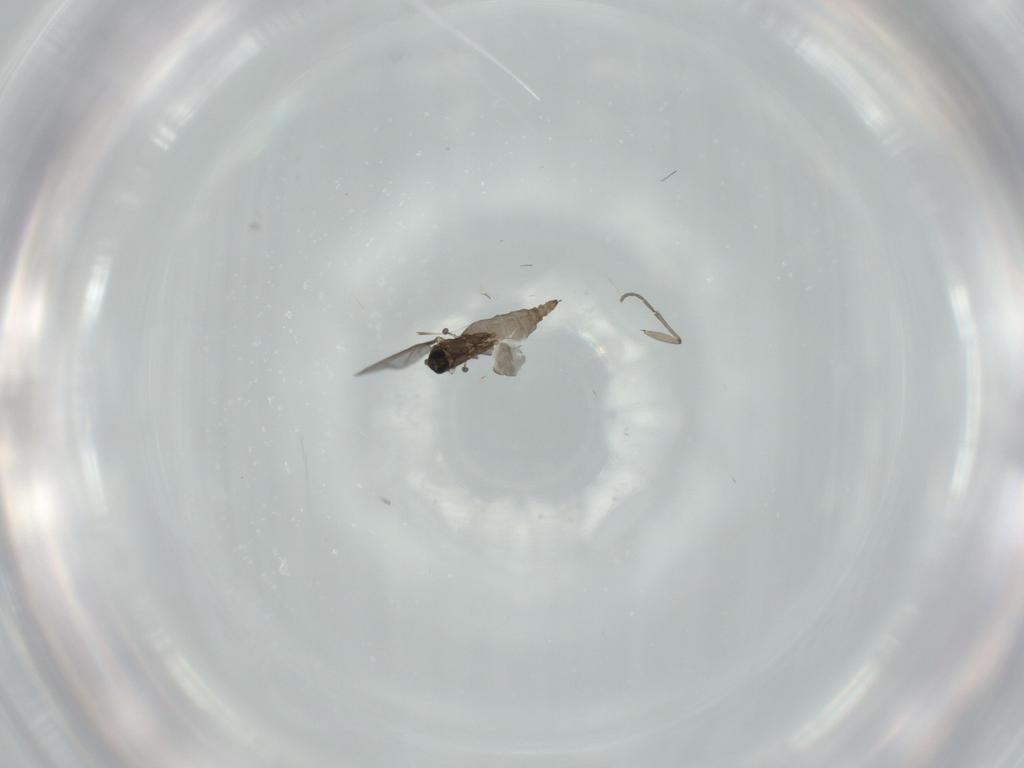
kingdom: Animalia
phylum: Arthropoda
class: Insecta
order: Diptera
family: Sciaridae
